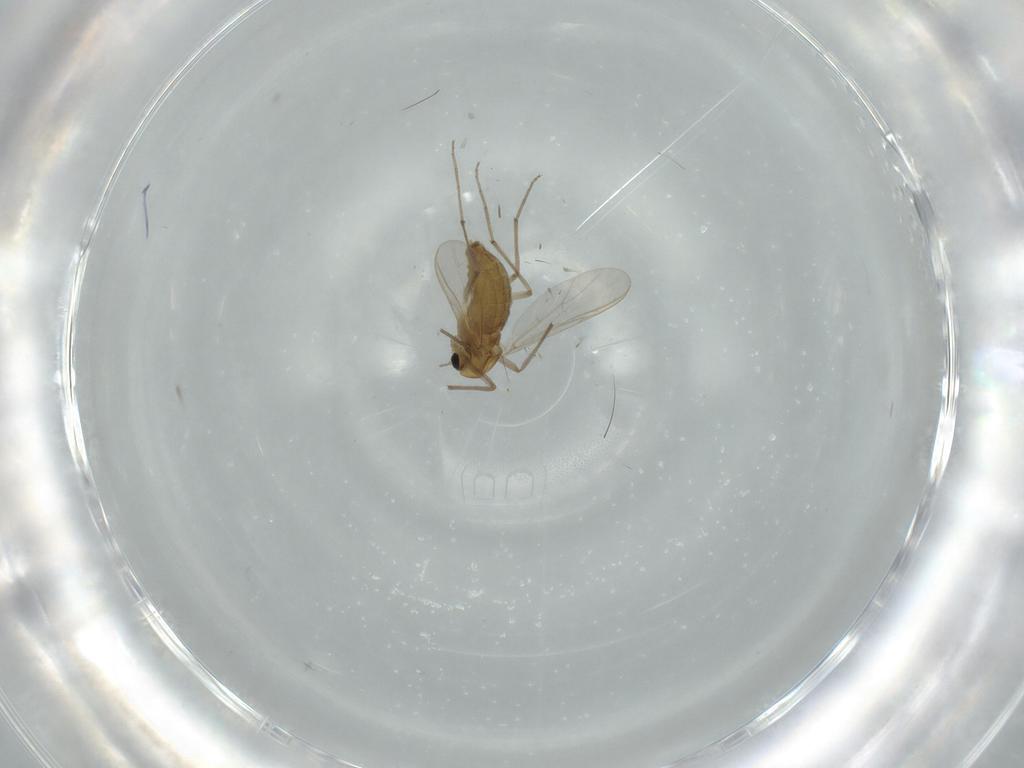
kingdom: Animalia
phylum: Arthropoda
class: Insecta
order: Diptera
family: Chironomidae
